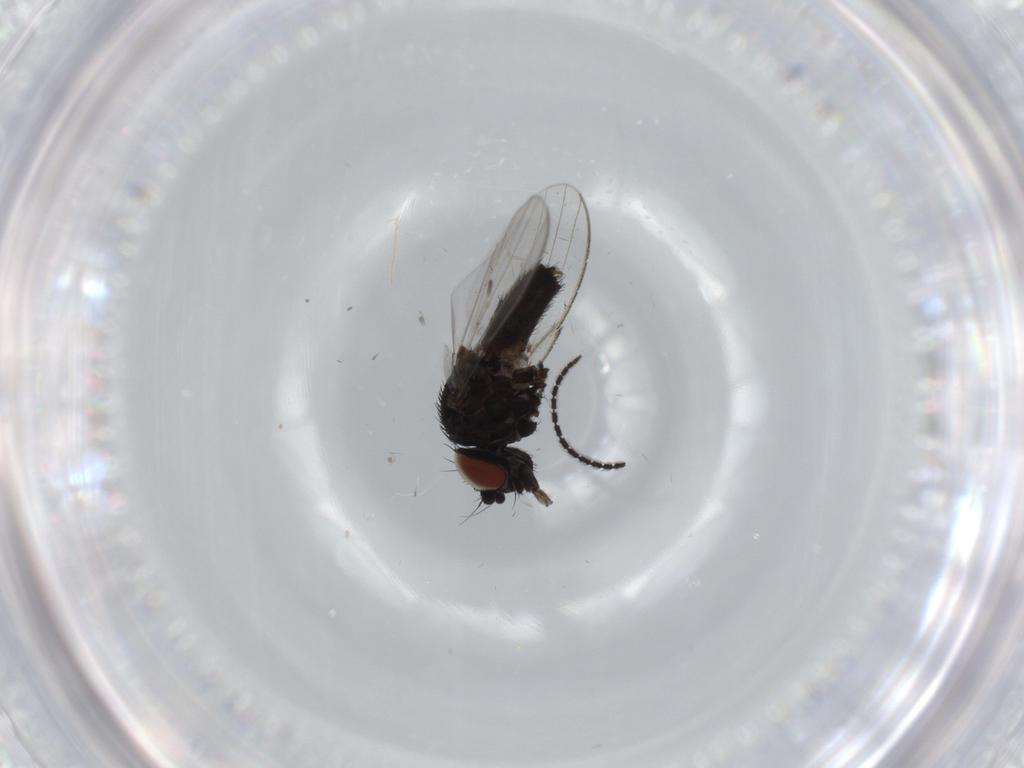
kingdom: Animalia
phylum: Arthropoda
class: Insecta
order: Diptera
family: Milichiidae
